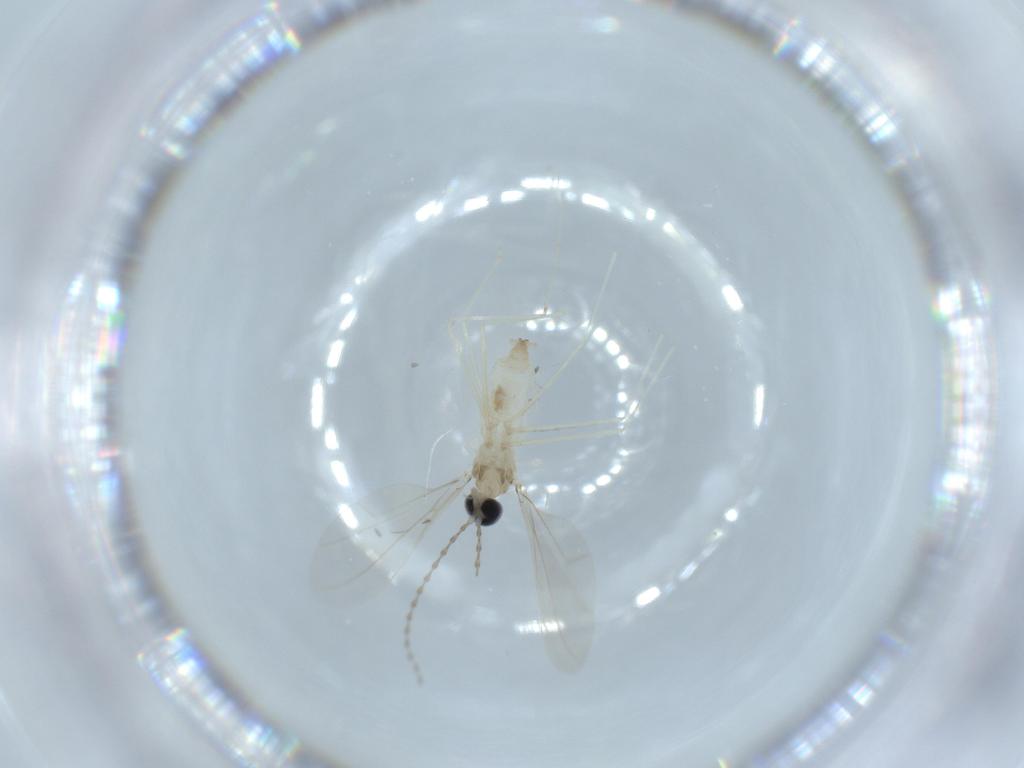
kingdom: Animalia
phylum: Arthropoda
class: Insecta
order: Diptera
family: Cecidomyiidae
